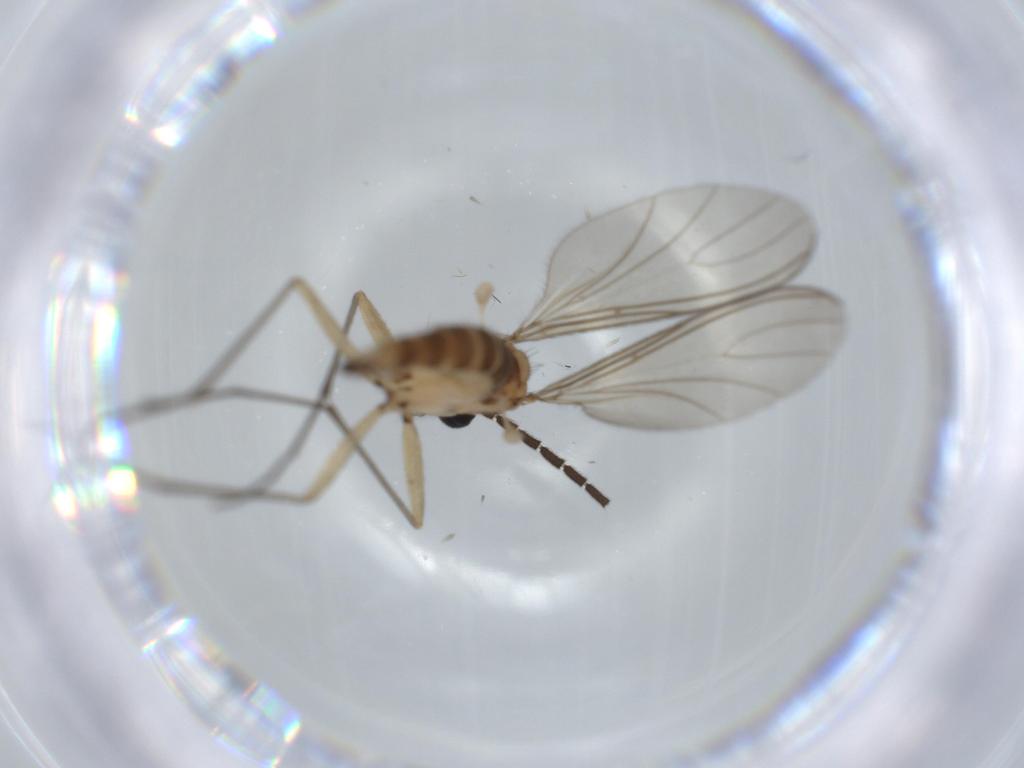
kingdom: Animalia
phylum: Arthropoda
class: Insecta
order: Diptera
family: Sciaridae
